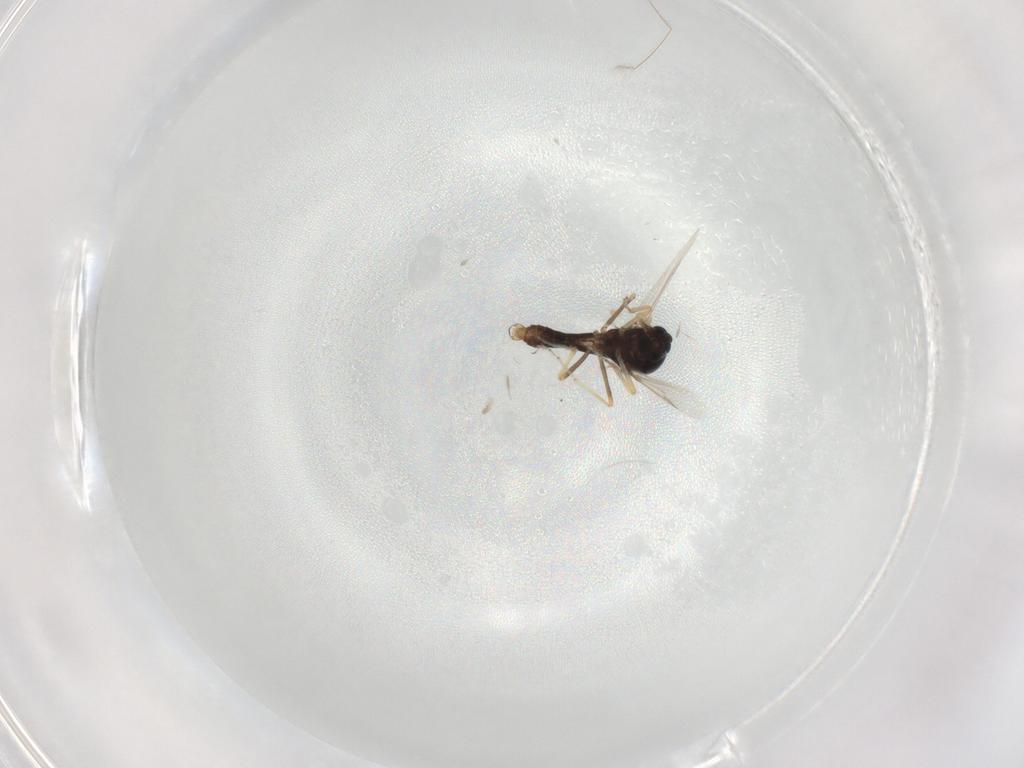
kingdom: Animalia
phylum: Arthropoda
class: Insecta
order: Diptera
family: Ceratopogonidae
